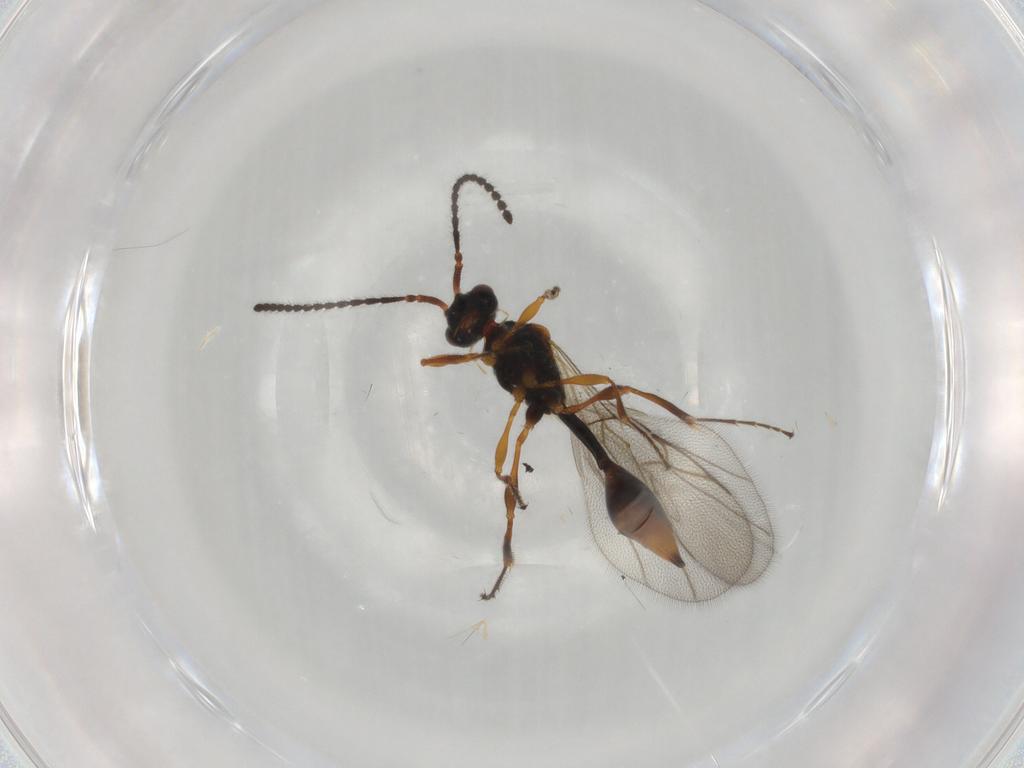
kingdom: Animalia
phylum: Arthropoda
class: Insecta
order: Hymenoptera
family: Diapriidae
